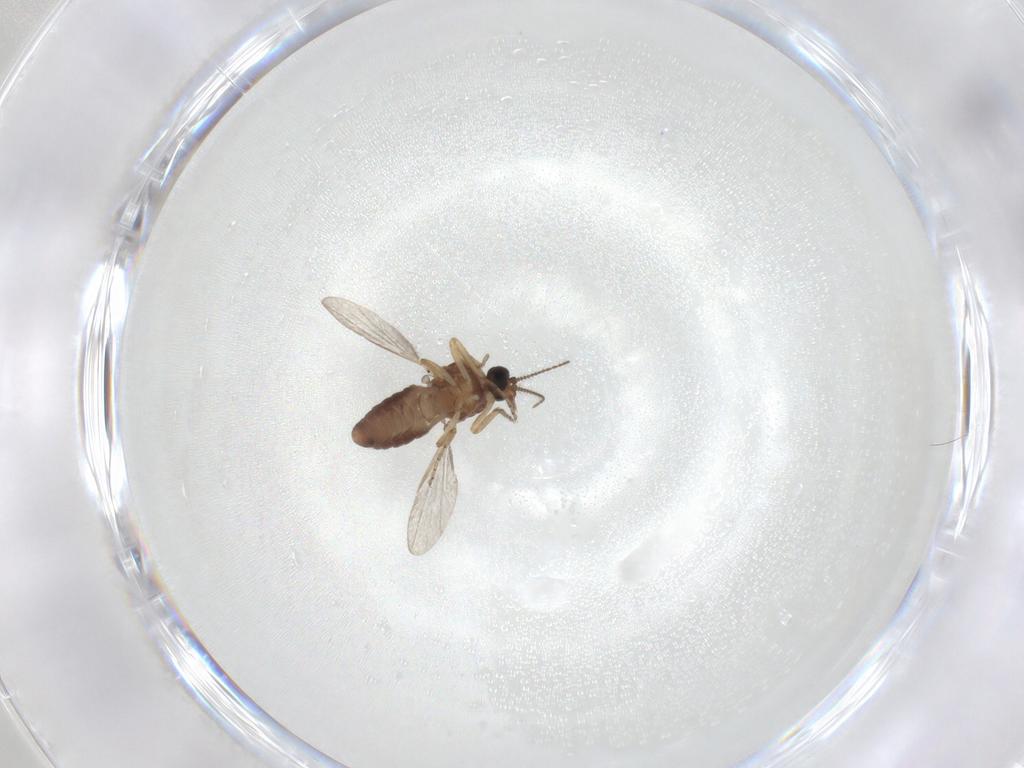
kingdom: Animalia
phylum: Arthropoda
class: Insecta
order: Diptera
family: Ceratopogonidae
